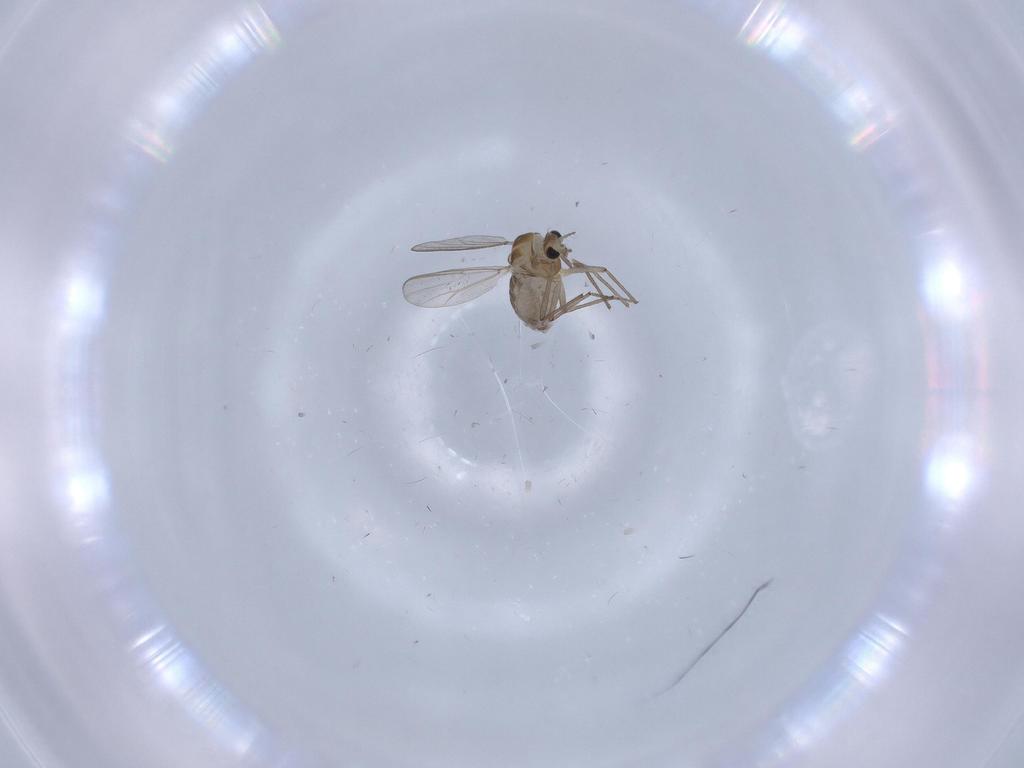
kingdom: Animalia
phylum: Arthropoda
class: Insecta
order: Diptera
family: Chironomidae
